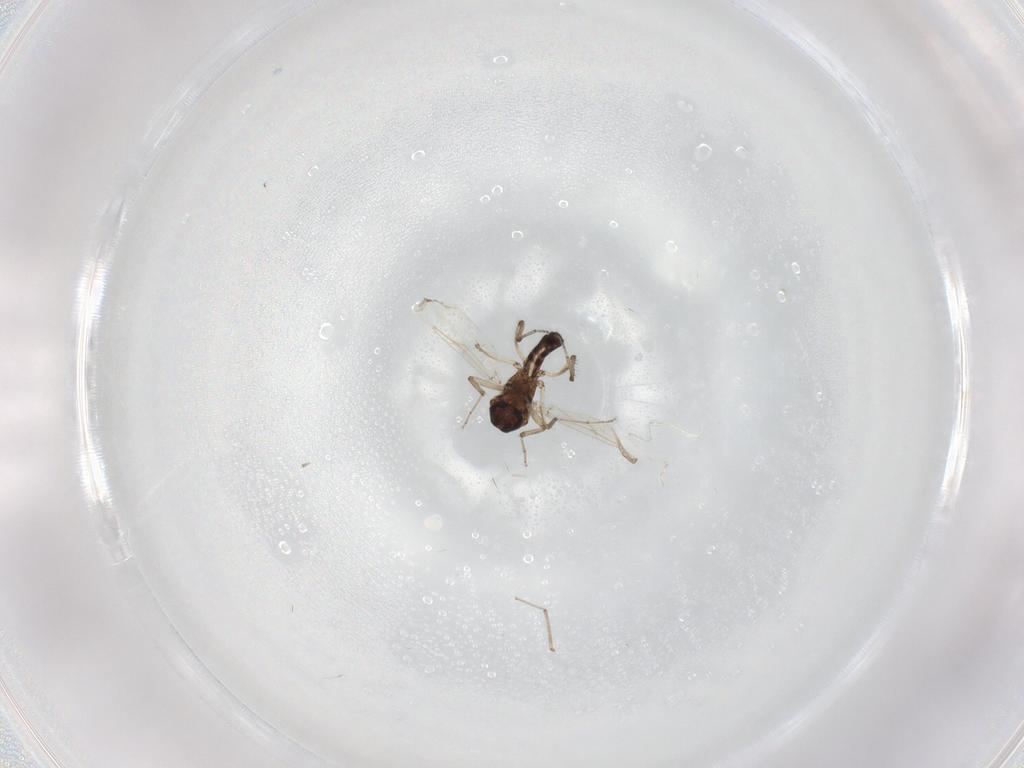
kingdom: Animalia
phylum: Arthropoda
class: Insecta
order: Diptera
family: Ceratopogonidae
